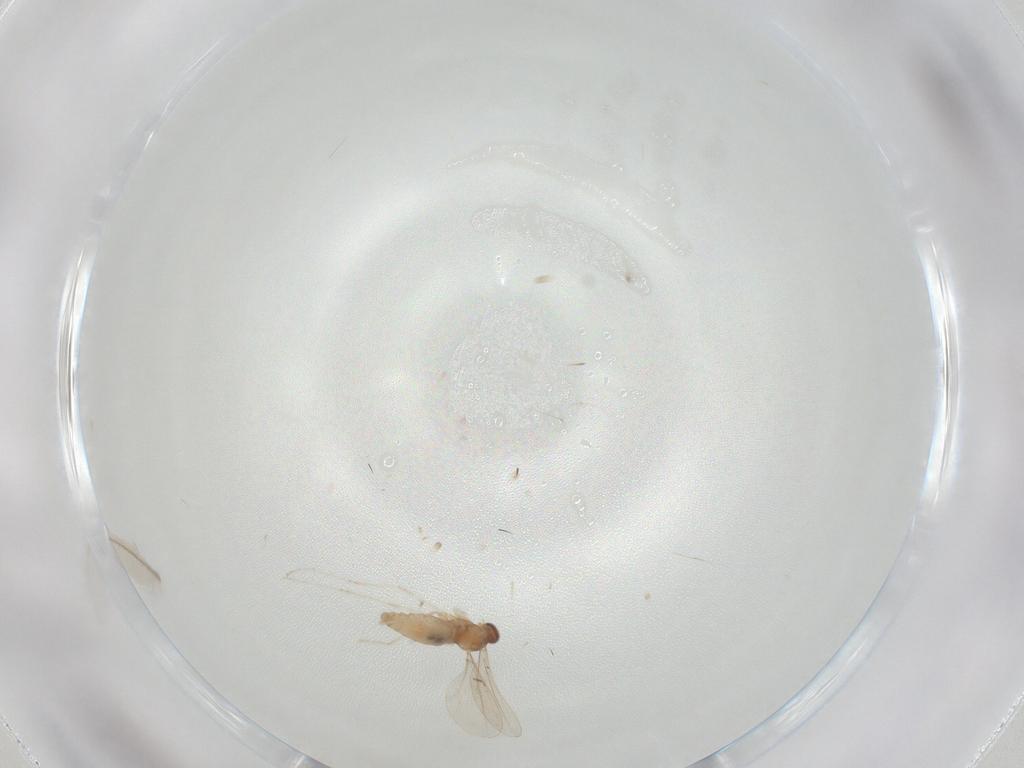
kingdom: Animalia
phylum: Arthropoda
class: Insecta
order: Diptera
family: Cecidomyiidae
